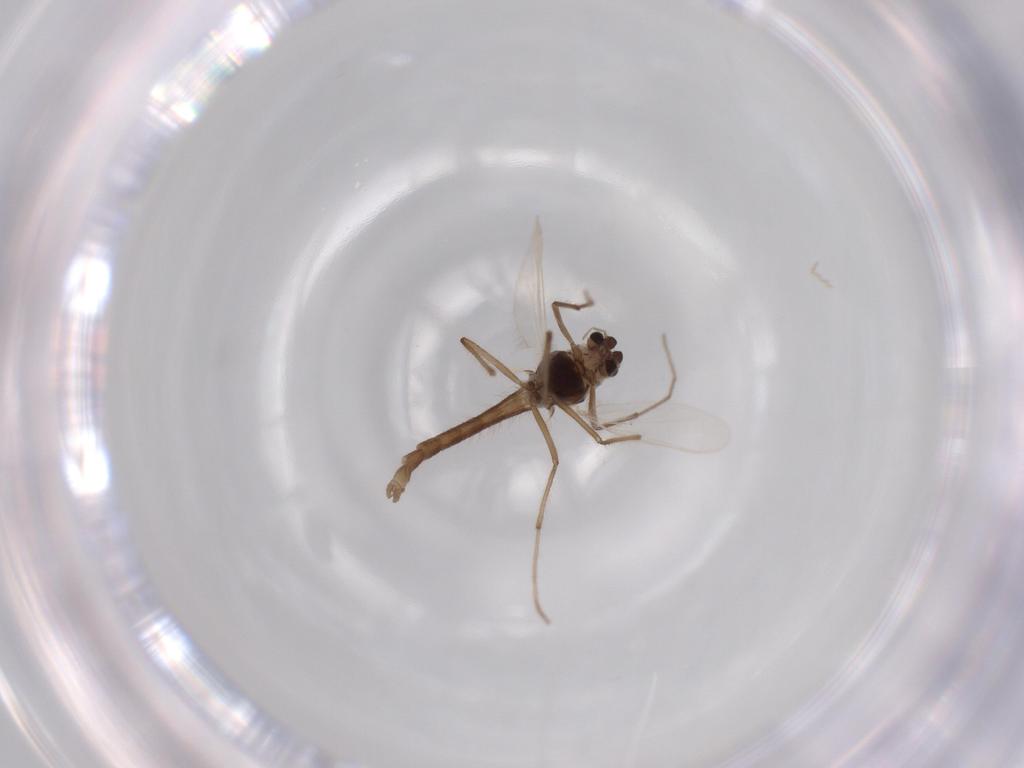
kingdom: Animalia
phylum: Arthropoda
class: Insecta
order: Diptera
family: Chironomidae
